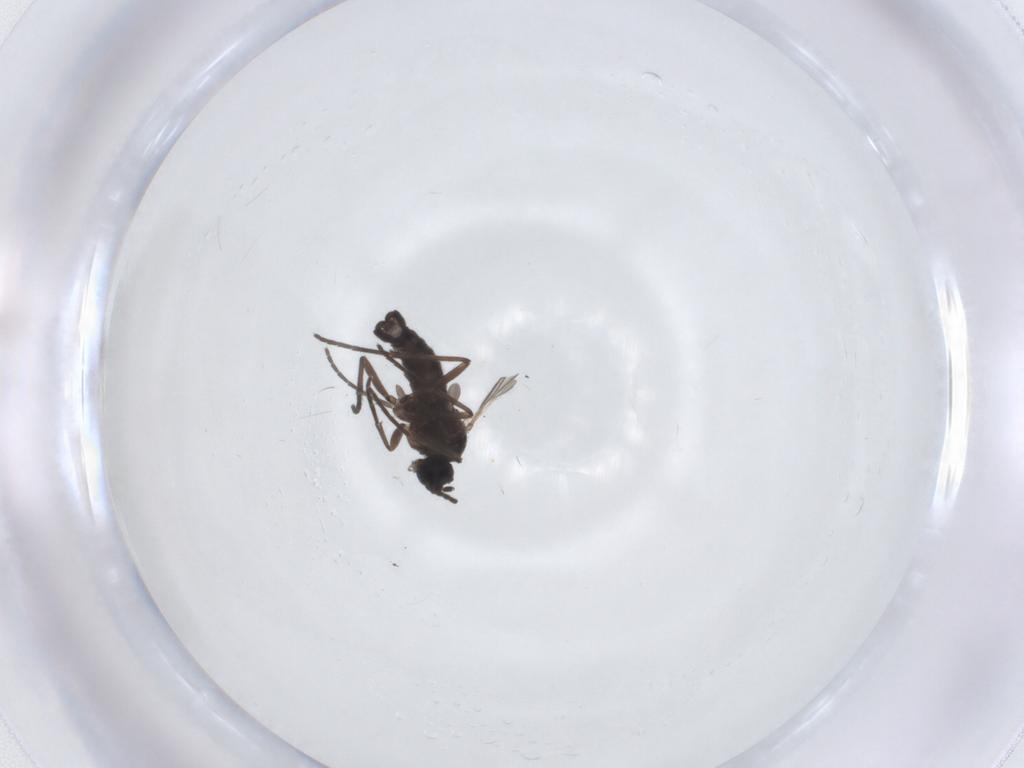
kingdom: Animalia
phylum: Arthropoda
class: Insecta
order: Diptera
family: Sciaridae
